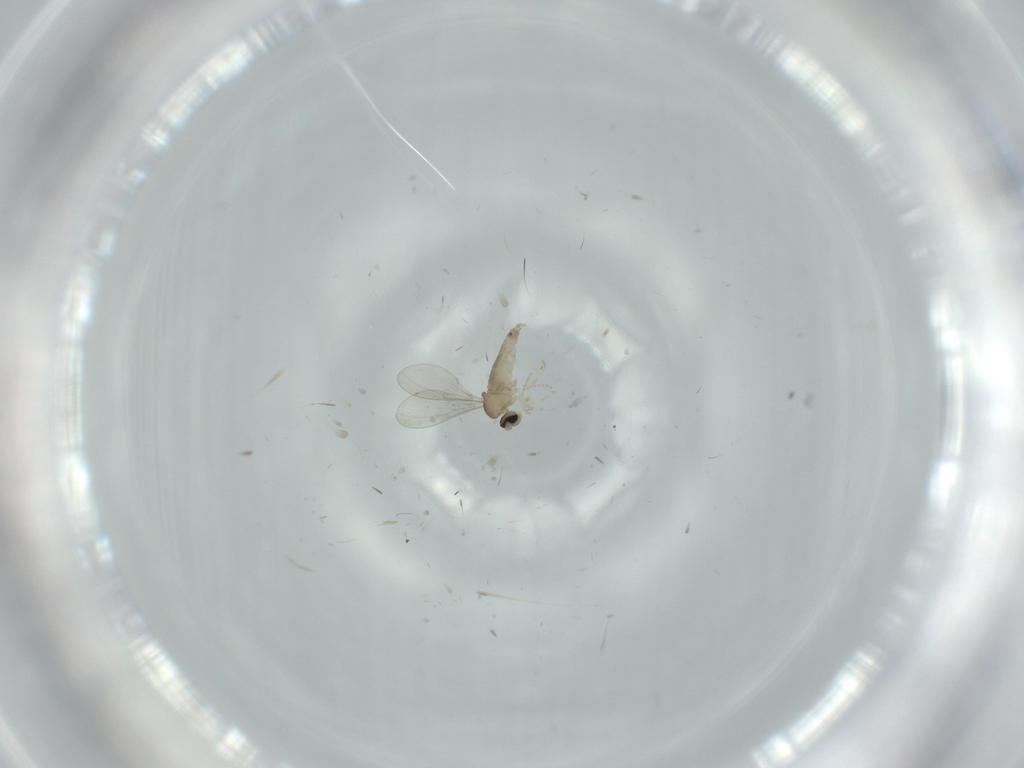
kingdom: Animalia
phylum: Arthropoda
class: Insecta
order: Diptera
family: Cecidomyiidae
